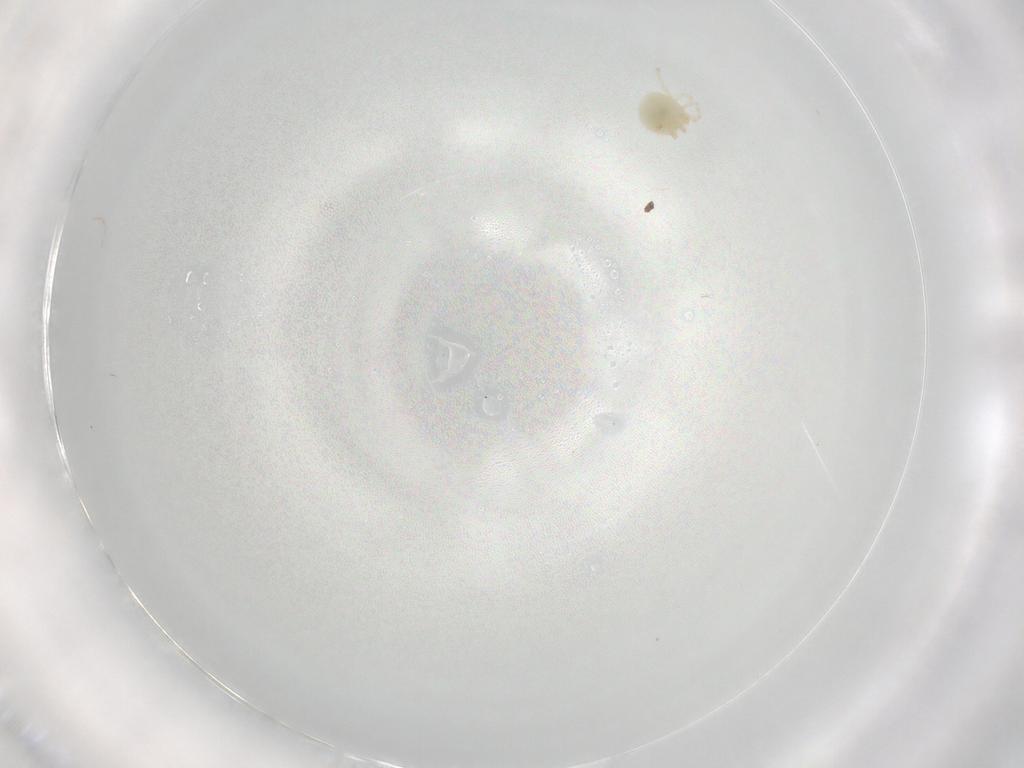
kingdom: Animalia
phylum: Arthropoda
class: Arachnida
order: Trombidiformes
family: Sperchontidae
